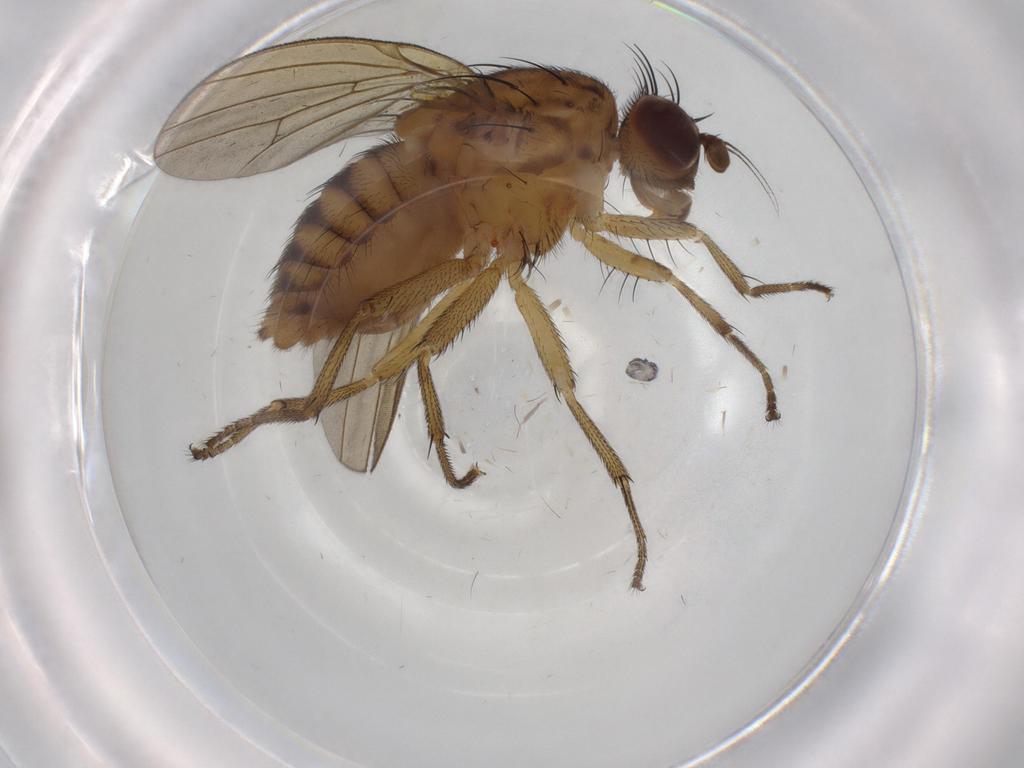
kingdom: Animalia
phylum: Arthropoda
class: Insecta
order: Diptera
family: Lauxaniidae
